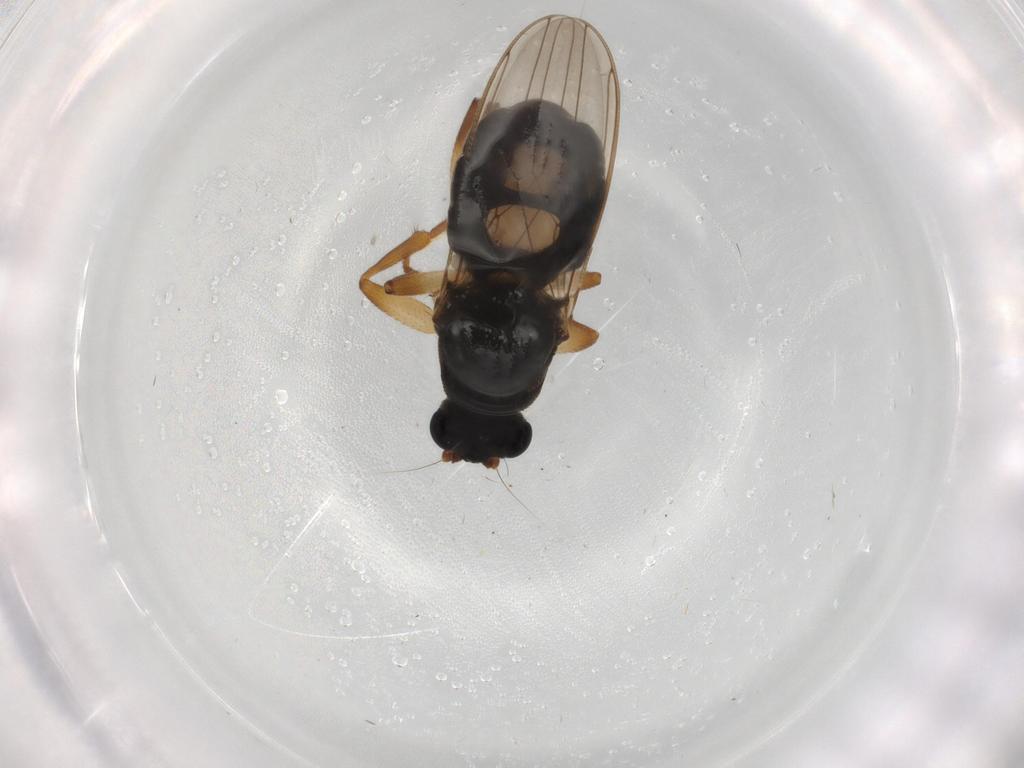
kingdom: Animalia
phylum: Arthropoda
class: Insecta
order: Diptera
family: Sphaeroceridae
